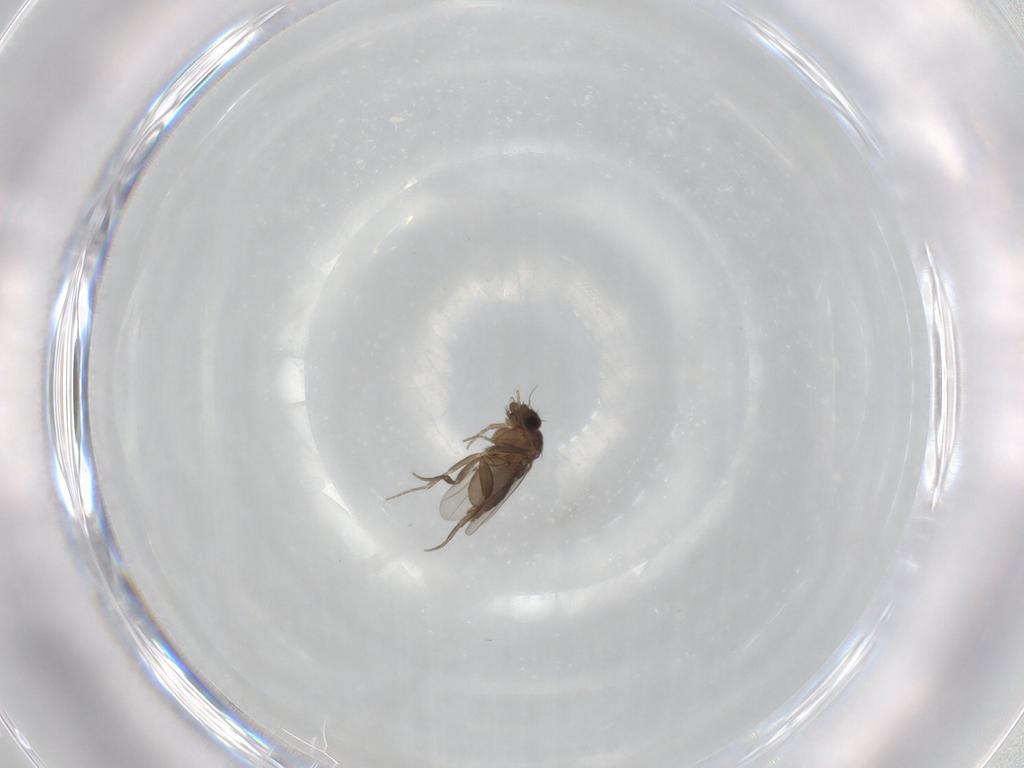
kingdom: Animalia
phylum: Arthropoda
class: Insecta
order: Diptera
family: Phoridae
